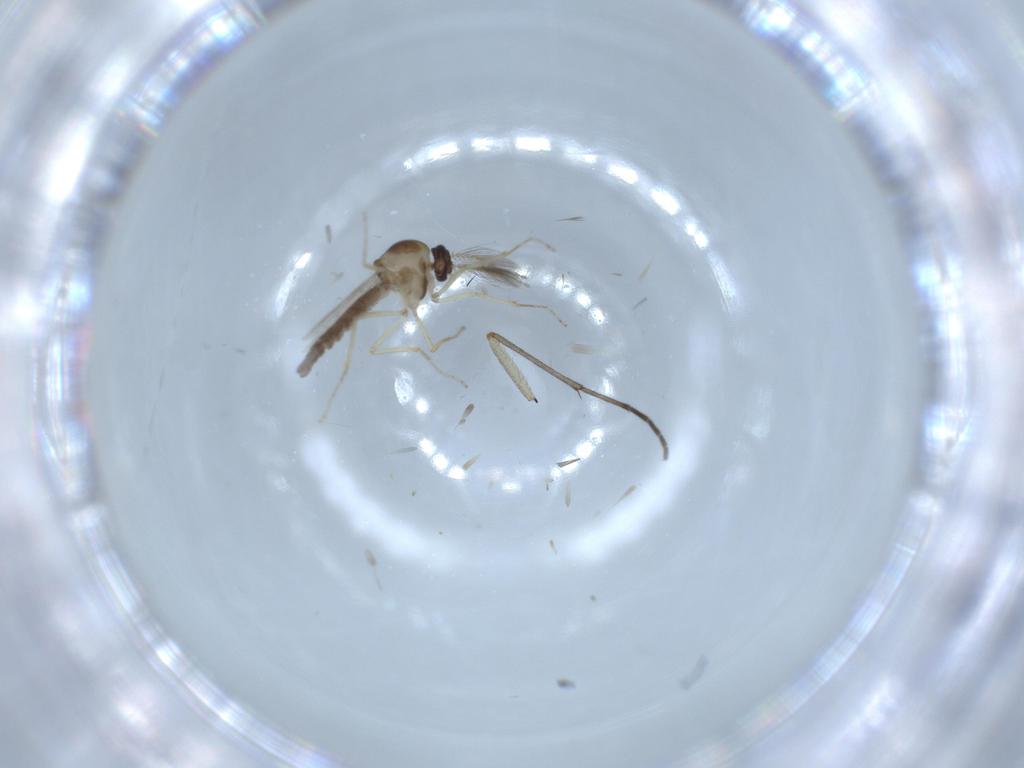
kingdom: Animalia
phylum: Arthropoda
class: Insecta
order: Diptera
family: Ceratopogonidae
